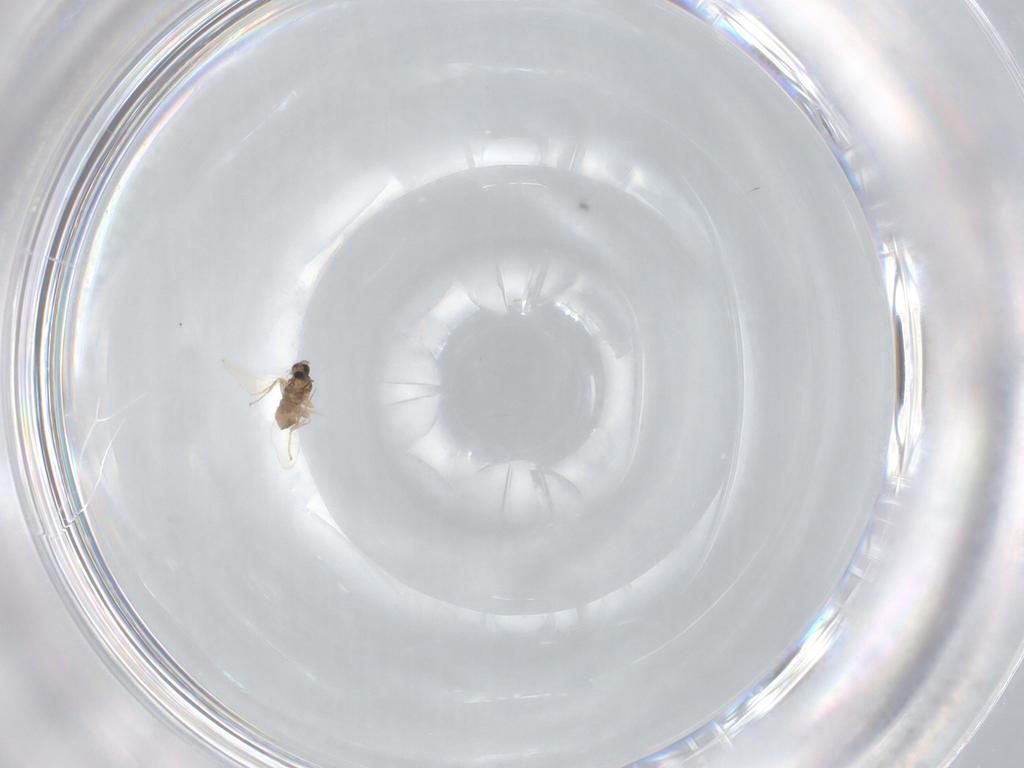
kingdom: Animalia
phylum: Arthropoda
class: Insecta
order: Diptera
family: Cecidomyiidae
